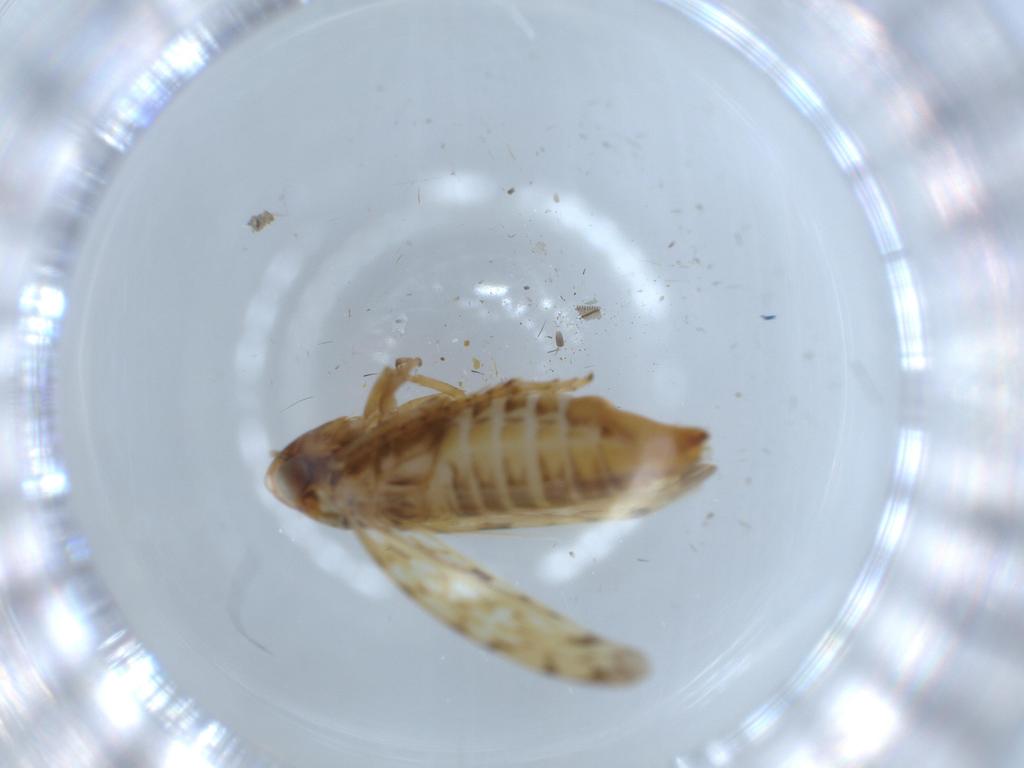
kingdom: Animalia
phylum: Arthropoda
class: Insecta
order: Hemiptera
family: Cicadellidae
